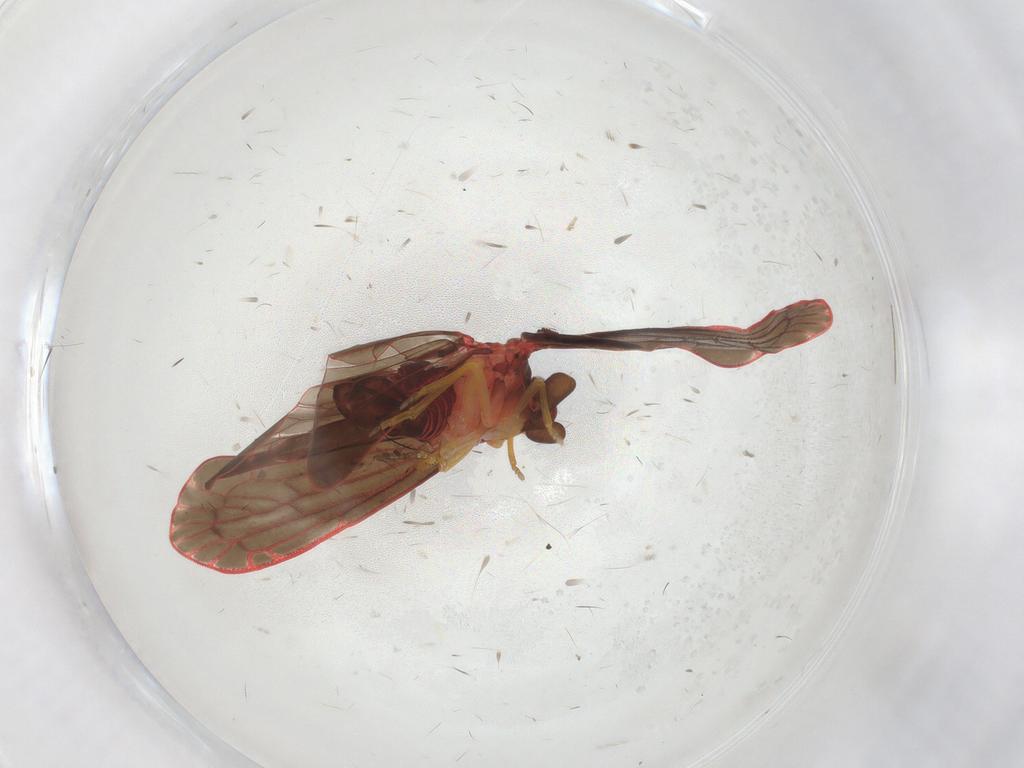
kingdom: Animalia
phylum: Arthropoda
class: Insecta
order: Hemiptera
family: Derbidae
